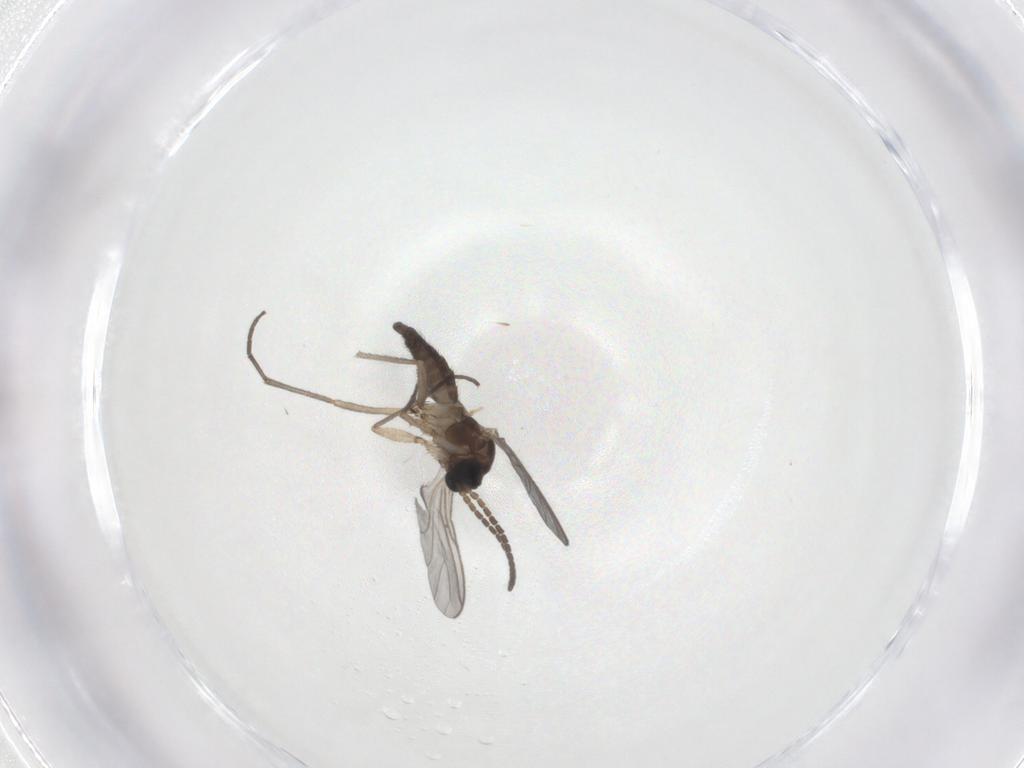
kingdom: Animalia
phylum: Arthropoda
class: Insecta
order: Diptera
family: Sciaridae
